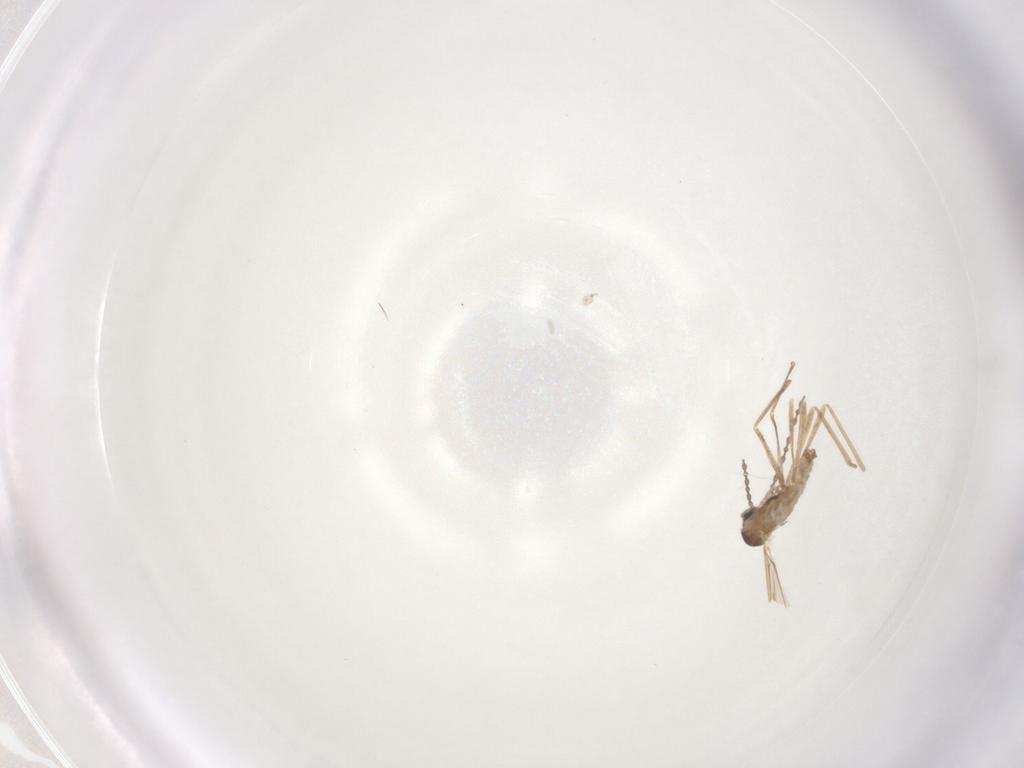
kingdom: Animalia
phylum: Arthropoda
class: Insecta
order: Diptera
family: Cecidomyiidae
